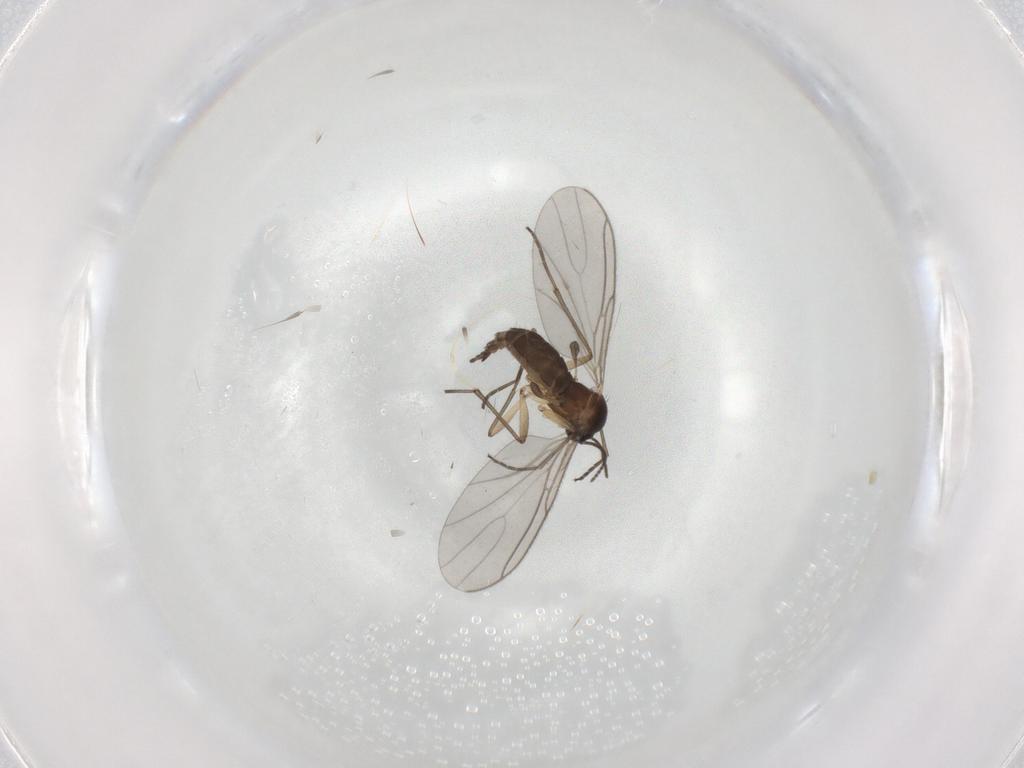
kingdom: Animalia
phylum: Arthropoda
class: Insecta
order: Diptera
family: Sciaridae
